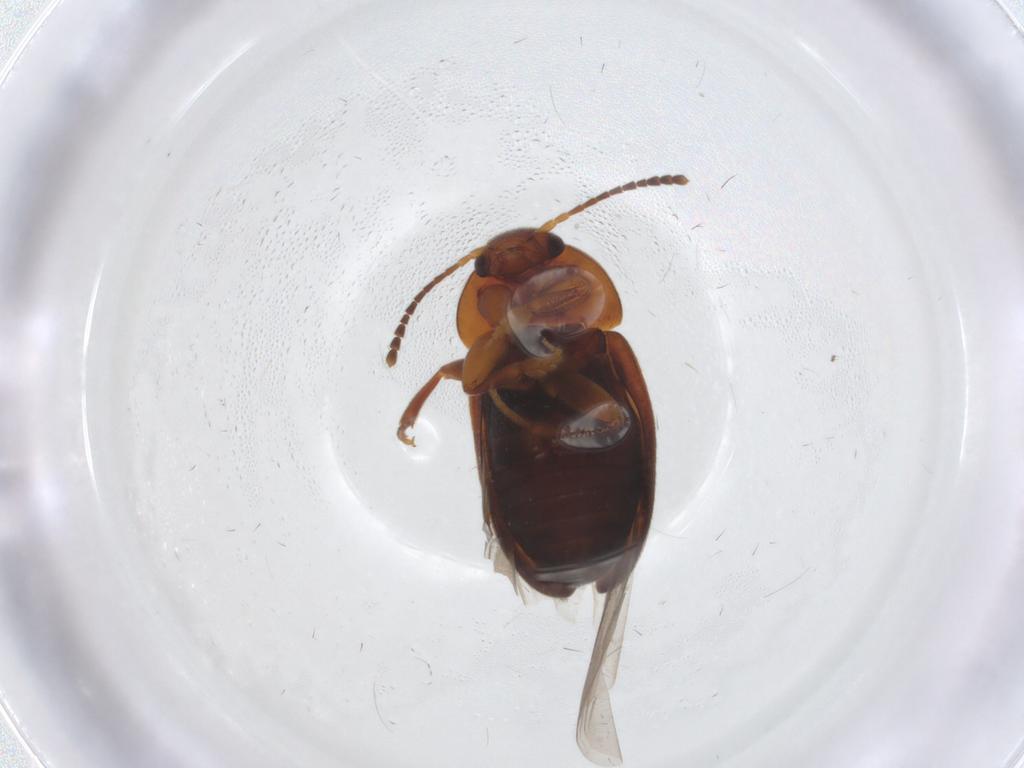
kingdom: Animalia
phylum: Arthropoda
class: Insecta
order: Coleoptera
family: Leiodidae
